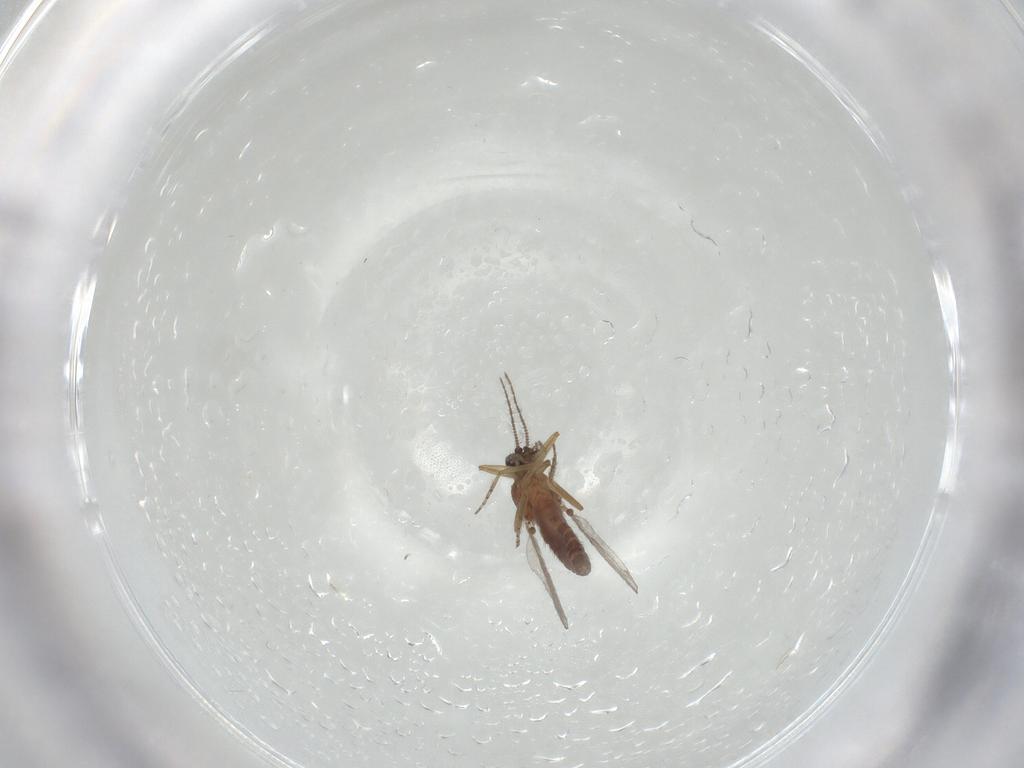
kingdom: Animalia
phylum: Arthropoda
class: Insecta
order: Diptera
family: Ceratopogonidae
